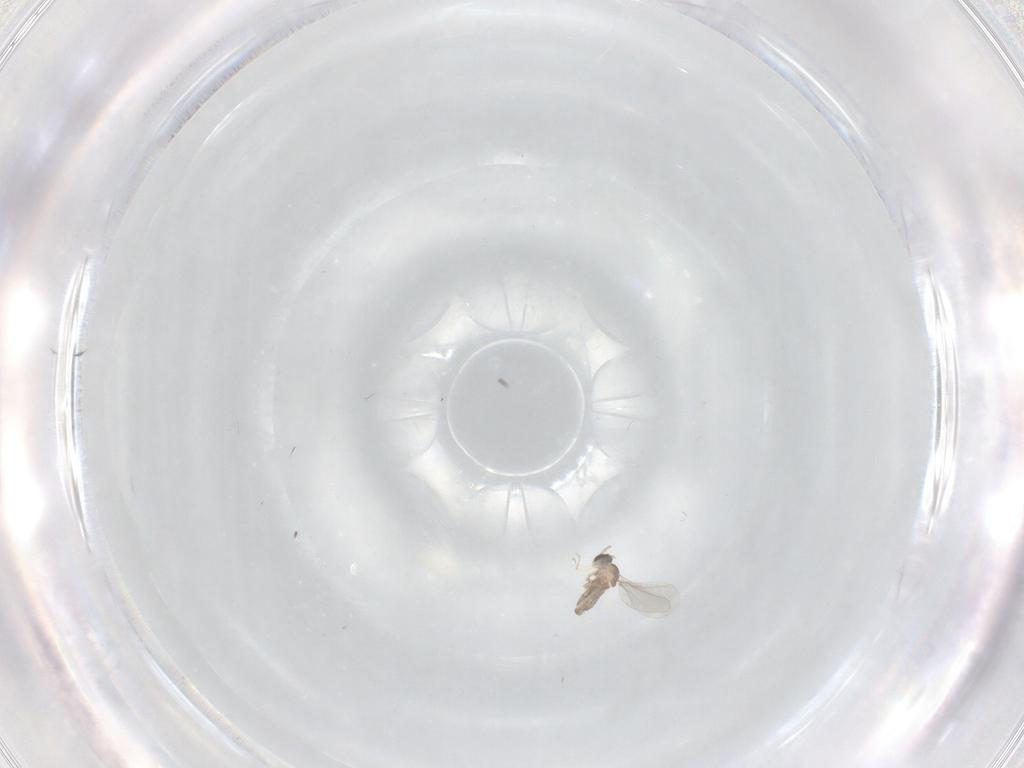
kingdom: Animalia
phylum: Arthropoda
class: Insecta
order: Diptera
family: Cecidomyiidae
